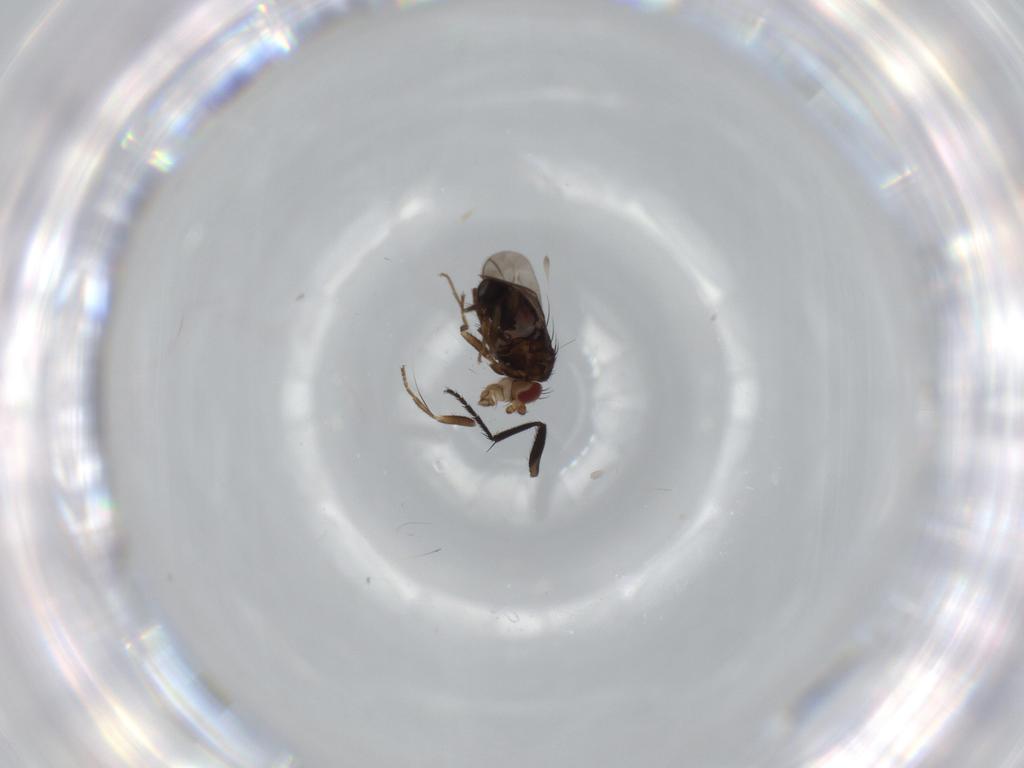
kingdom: Animalia
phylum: Arthropoda
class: Insecta
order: Diptera
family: Milichiidae
